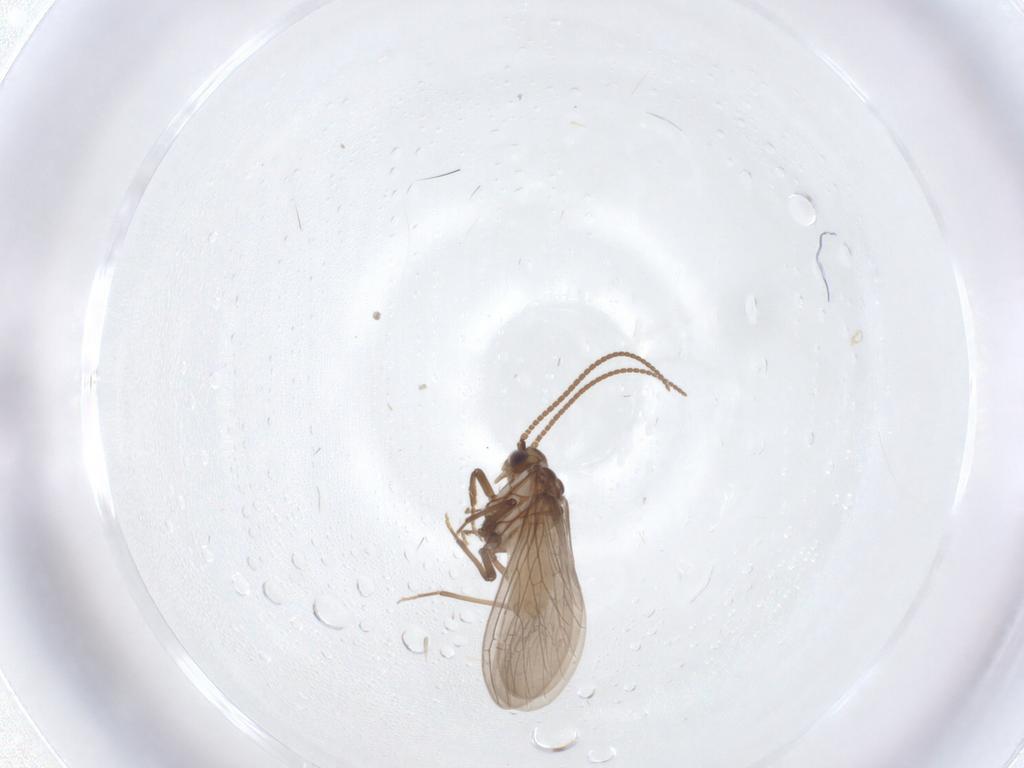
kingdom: Animalia
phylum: Arthropoda
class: Insecta
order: Neuroptera
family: Coniopterygidae
